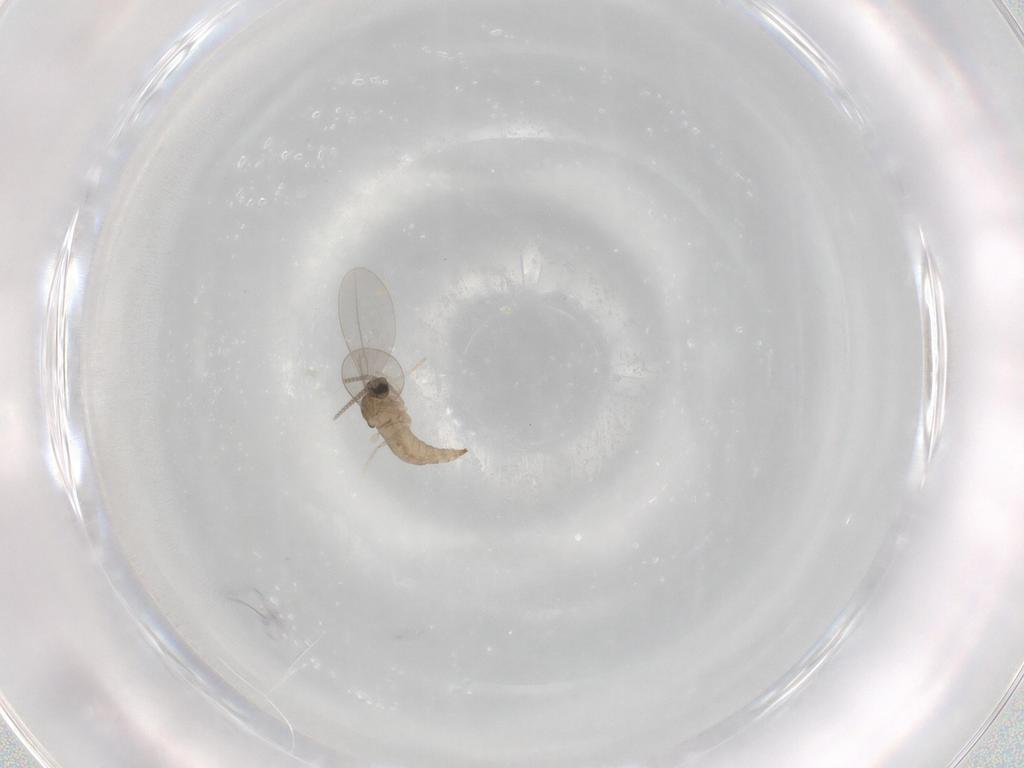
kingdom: Animalia
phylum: Arthropoda
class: Insecta
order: Diptera
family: Cecidomyiidae
